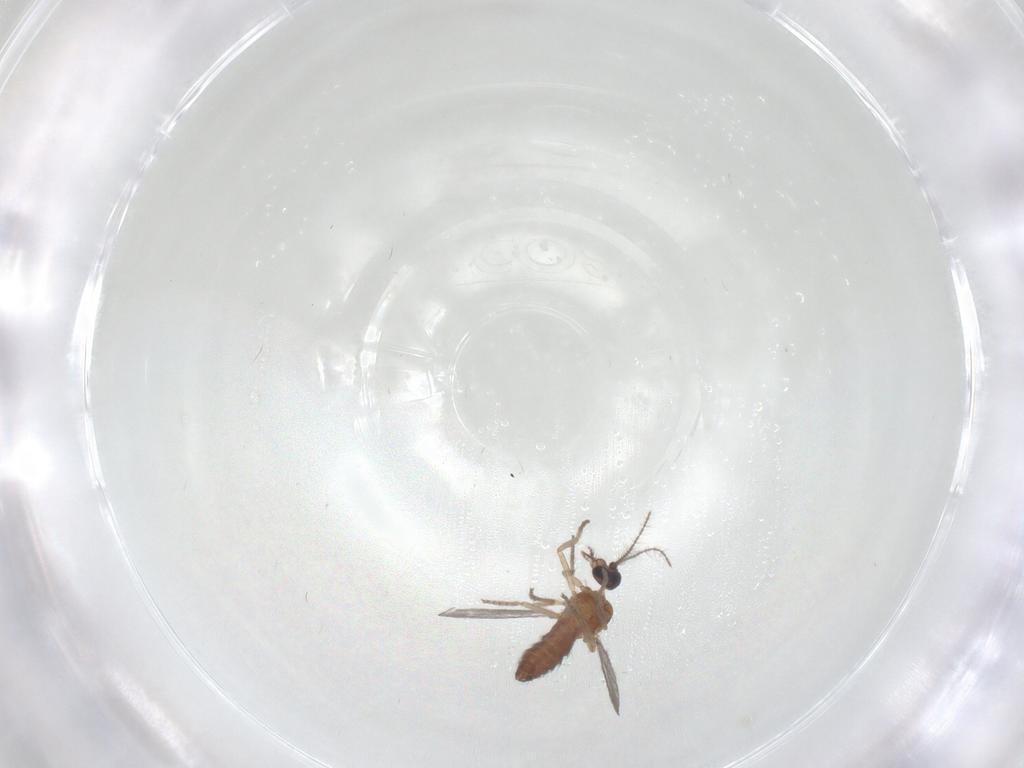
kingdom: Animalia
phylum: Arthropoda
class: Insecta
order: Diptera
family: Ceratopogonidae
